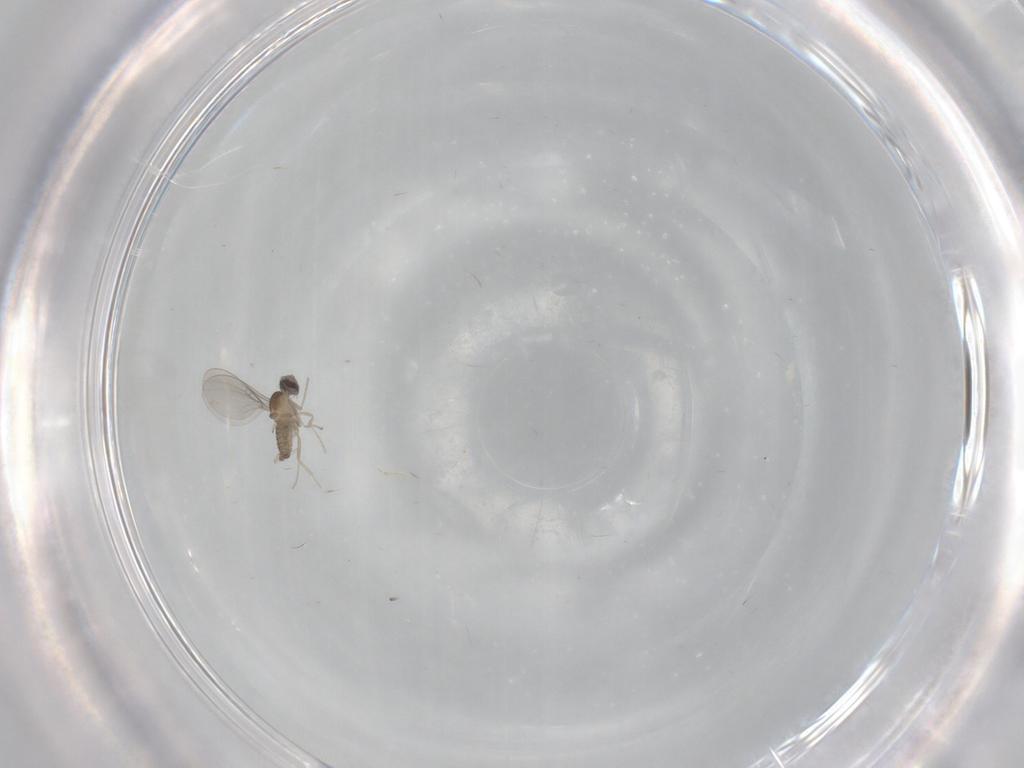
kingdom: Animalia
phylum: Arthropoda
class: Insecta
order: Diptera
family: Cecidomyiidae
